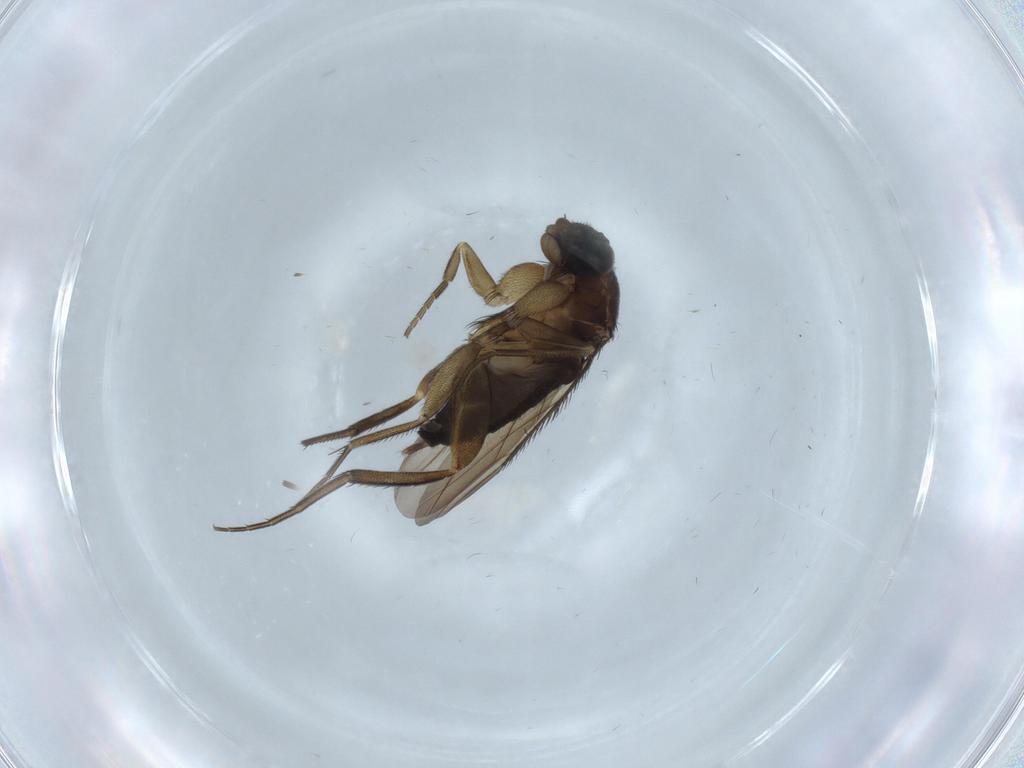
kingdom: Animalia
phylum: Arthropoda
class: Insecta
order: Diptera
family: Phoridae
